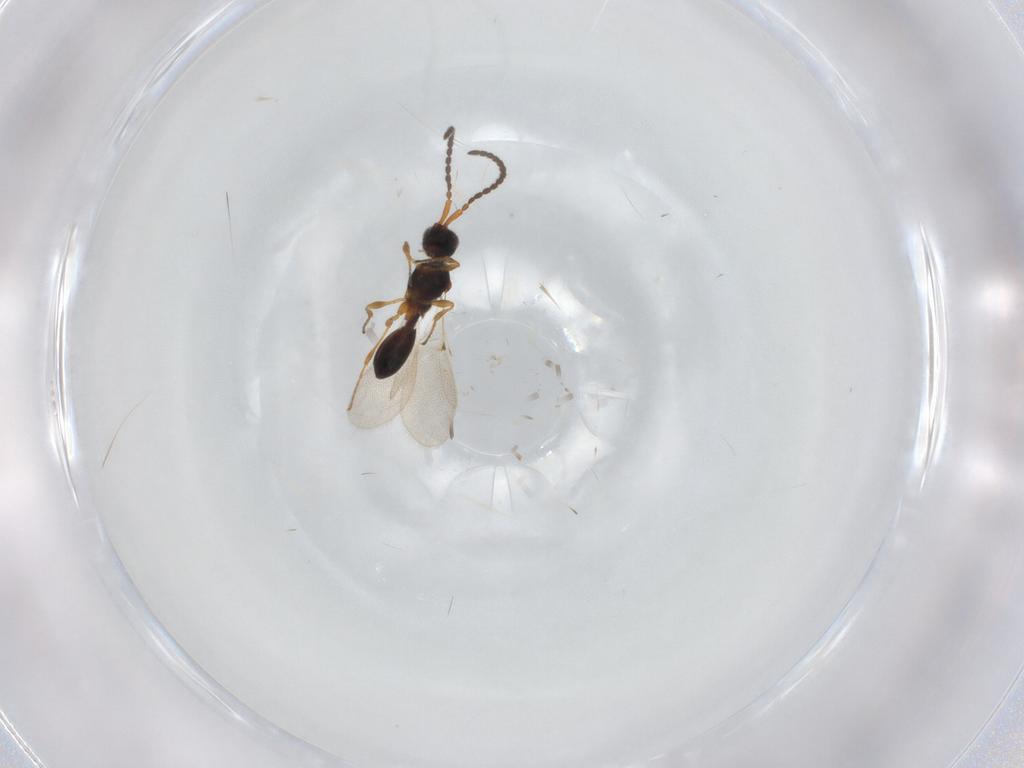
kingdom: Animalia
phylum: Arthropoda
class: Insecta
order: Hymenoptera
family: Diapriidae
